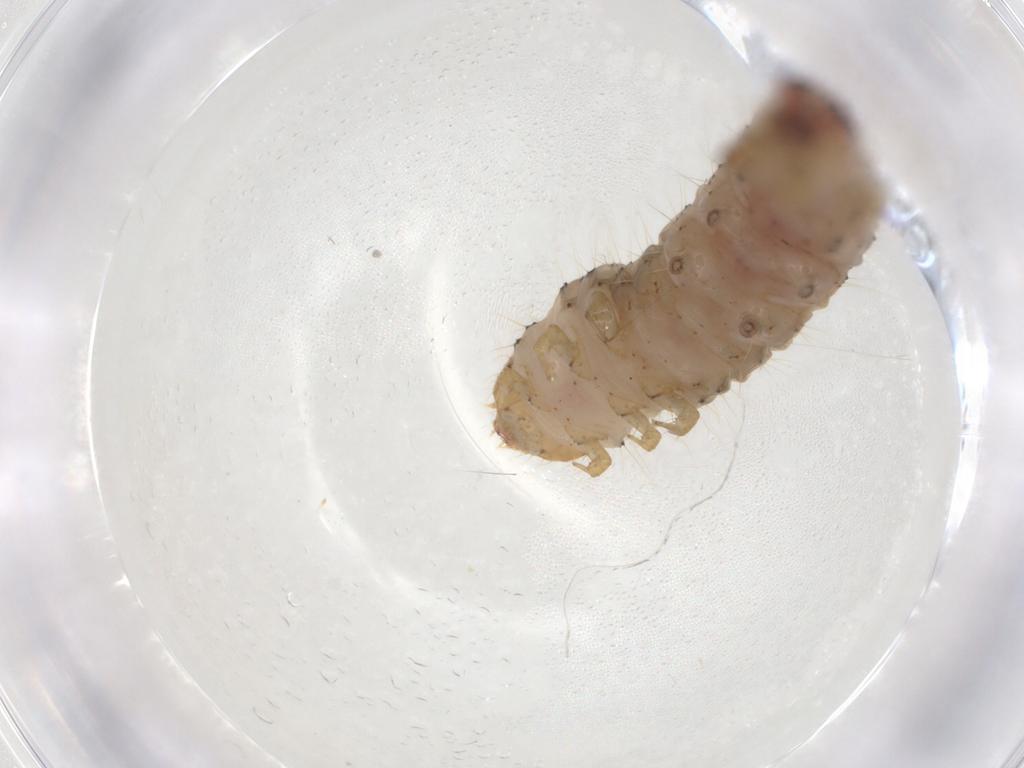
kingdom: Animalia
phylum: Arthropoda
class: Insecta
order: Lepidoptera
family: Choreutidae
